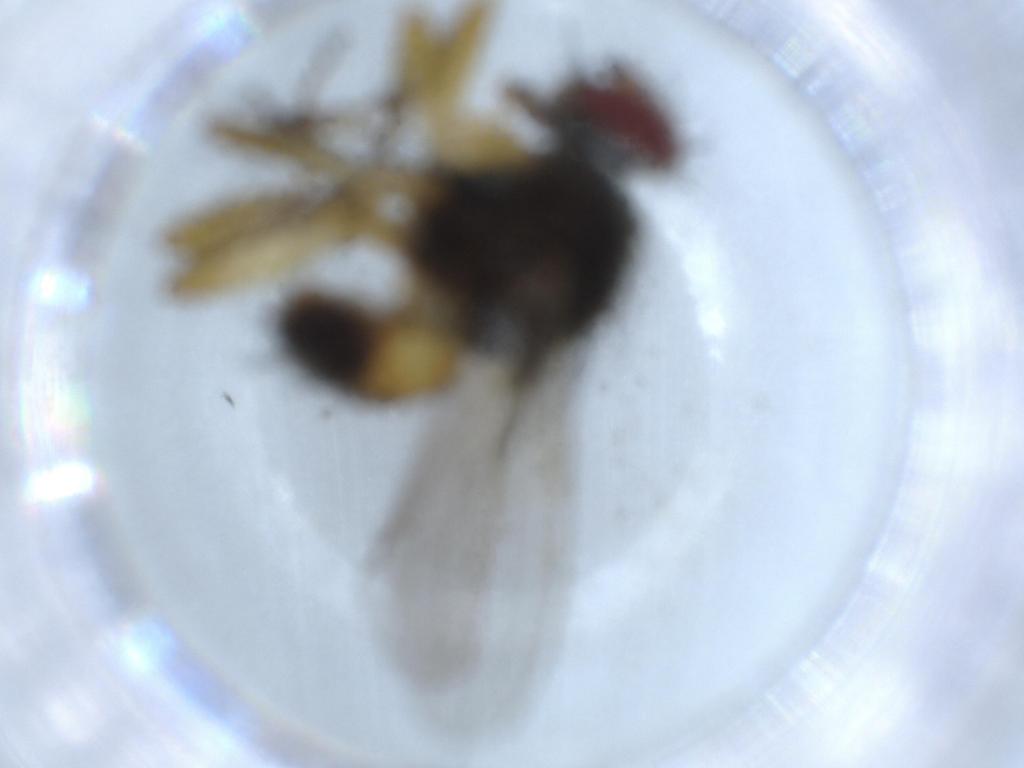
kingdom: Animalia
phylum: Arthropoda
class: Insecta
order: Diptera
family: Muscidae
